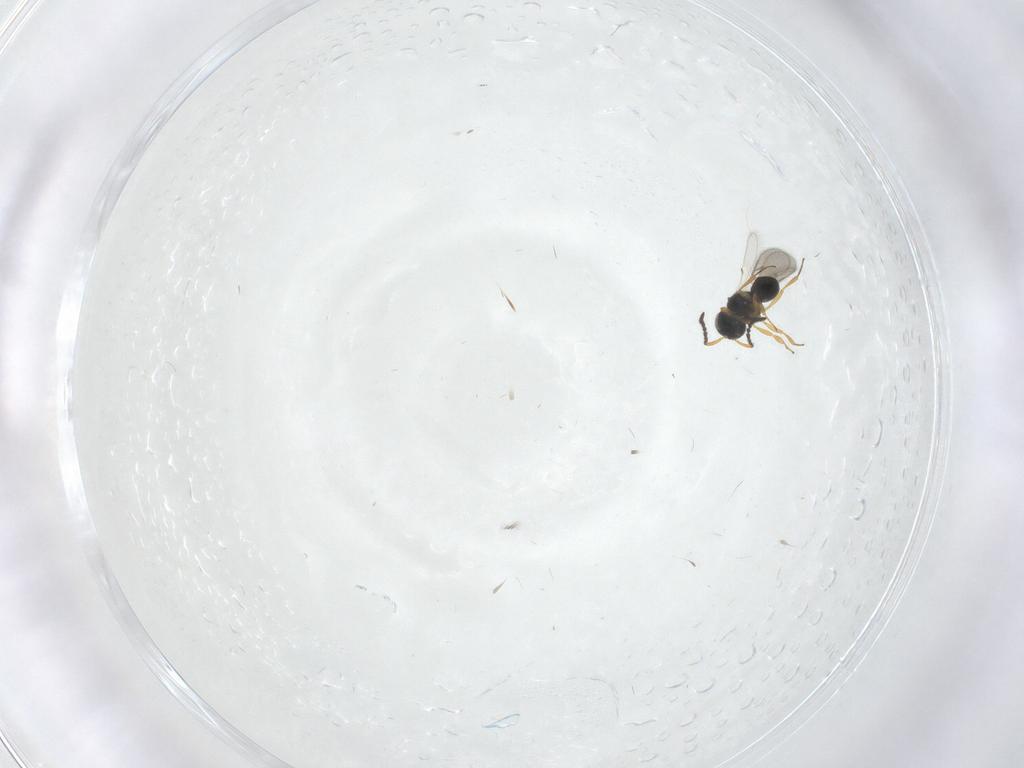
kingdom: Animalia
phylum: Arthropoda
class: Insecta
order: Hymenoptera
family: Scelionidae
